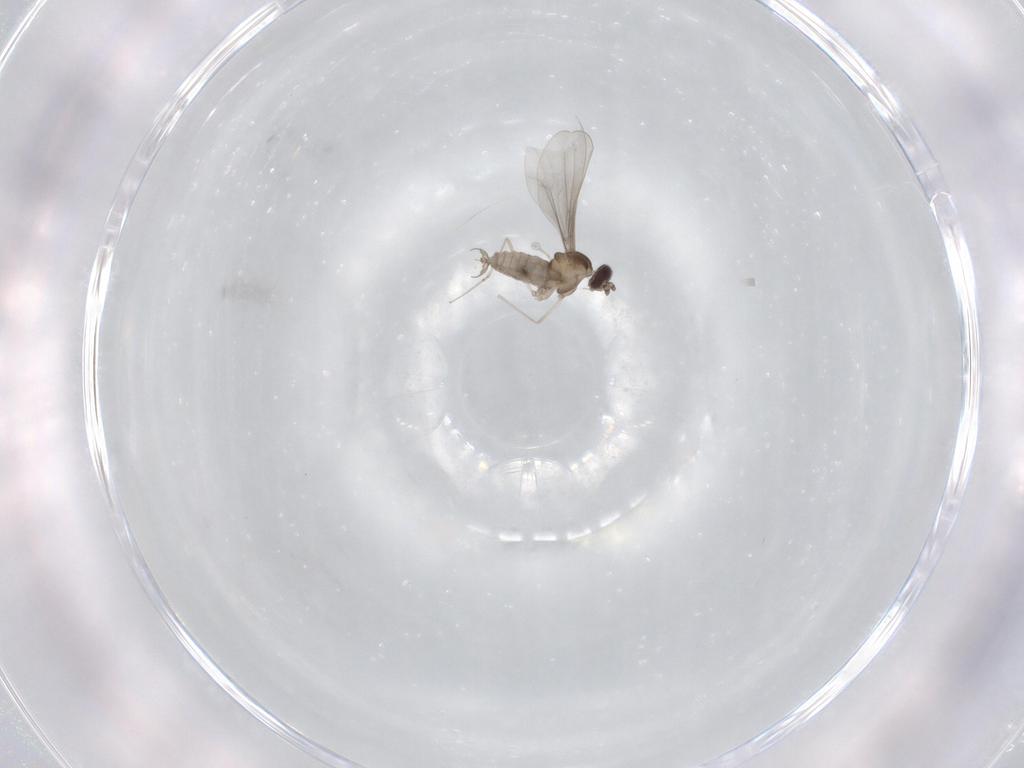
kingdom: Animalia
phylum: Arthropoda
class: Insecta
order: Diptera
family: Cecidomyiidae
